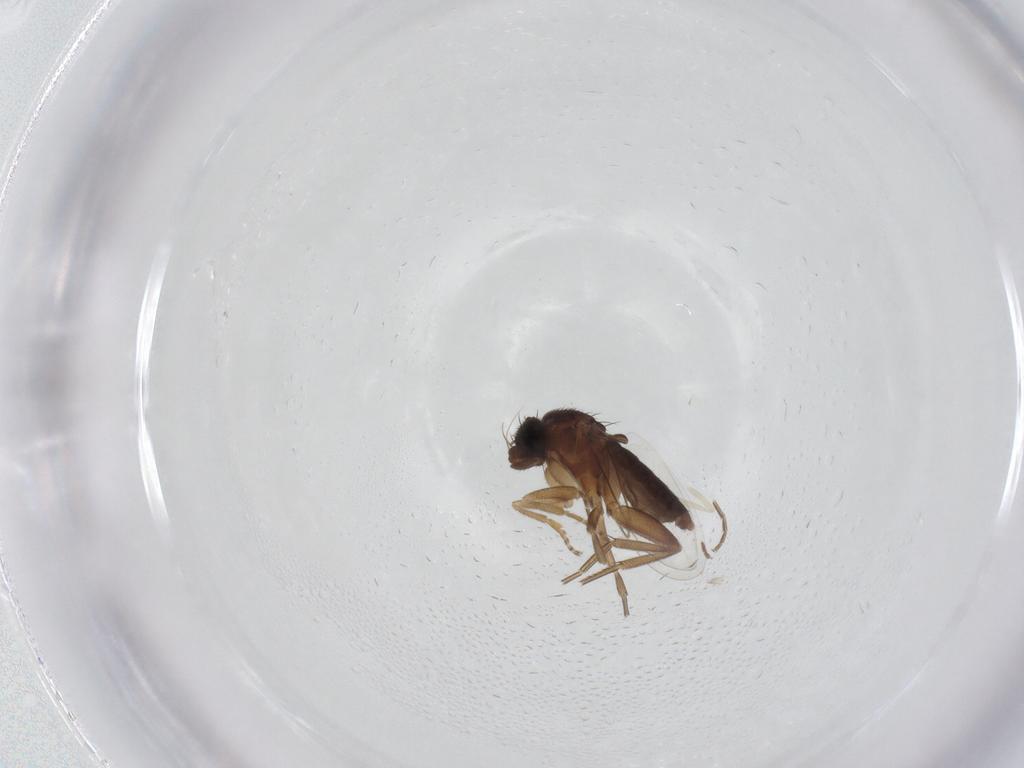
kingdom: Animalia
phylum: Arthropoda
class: Insecta
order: Diptera
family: Phoridae
